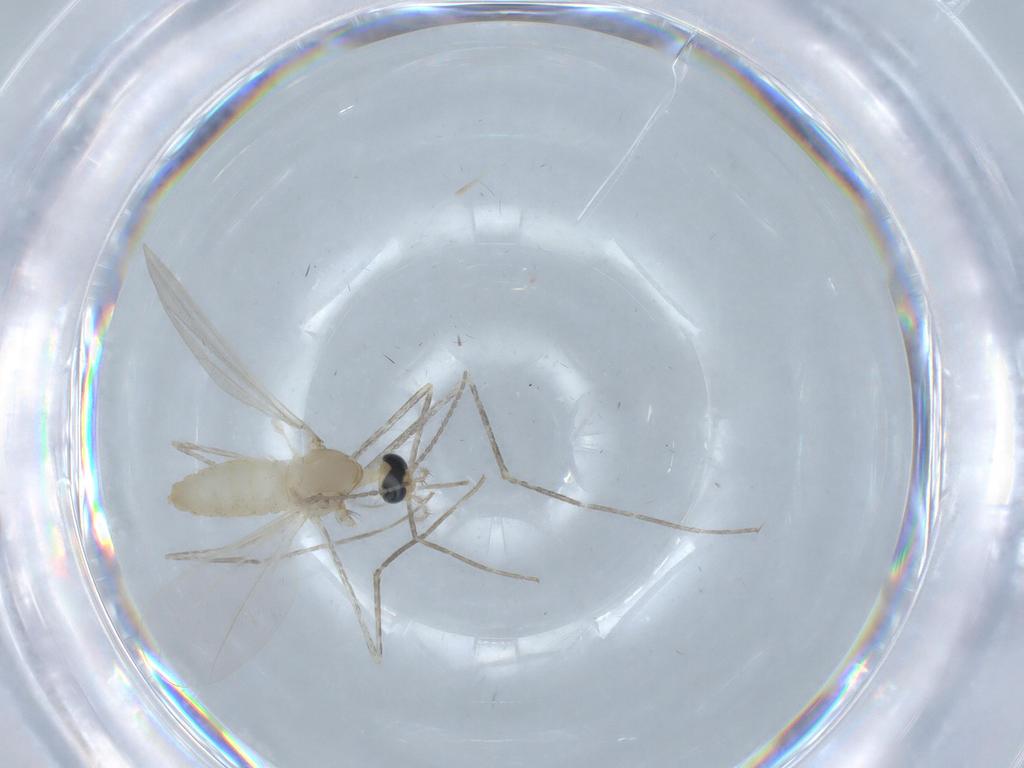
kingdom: Animalia
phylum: Arthropoda
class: Insecta
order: Diptera
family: Cecidomyiidae
